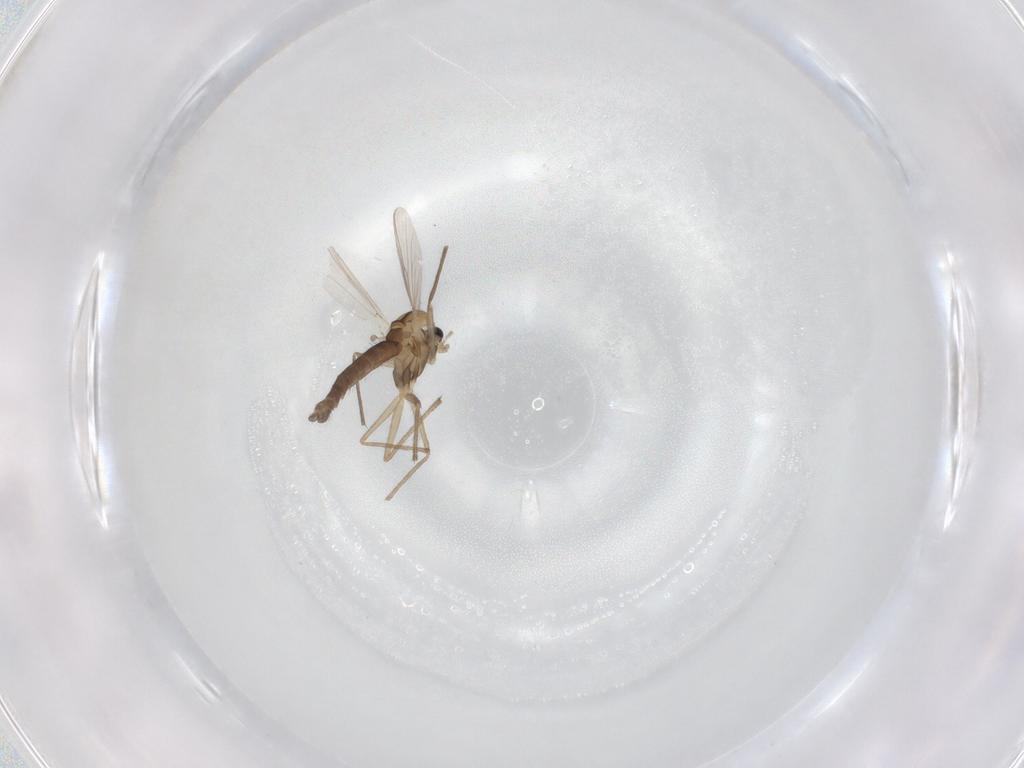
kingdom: Animalia
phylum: Arthropoda
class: Insecta
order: Diptera
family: Chironomidae
